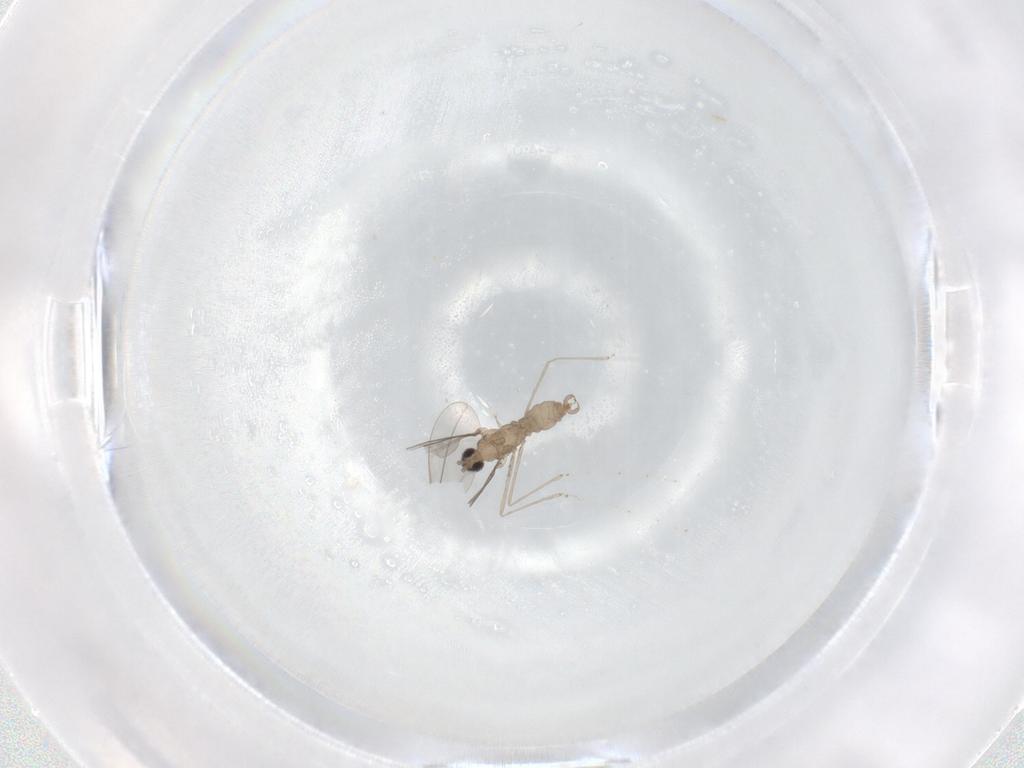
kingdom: Animalia
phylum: Arthropoda
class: Insecta
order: Diptera
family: Cecidomyiidae
